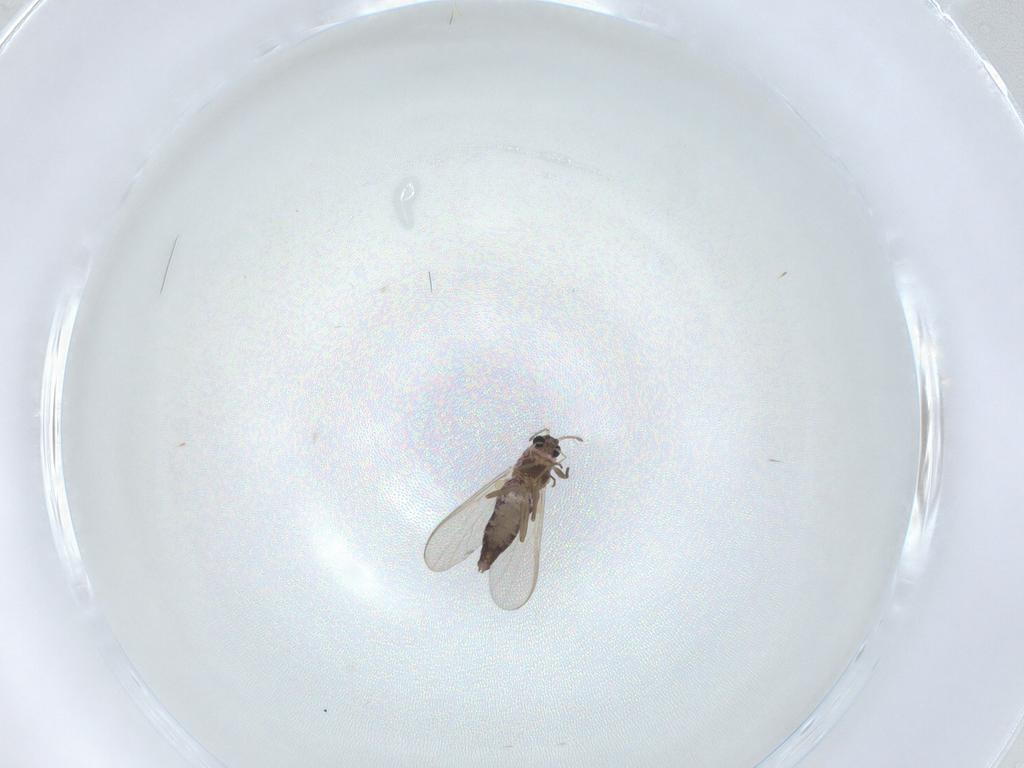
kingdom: Animalia
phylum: Arthropoda
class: Insecta
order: Diptera
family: Chironomidae
